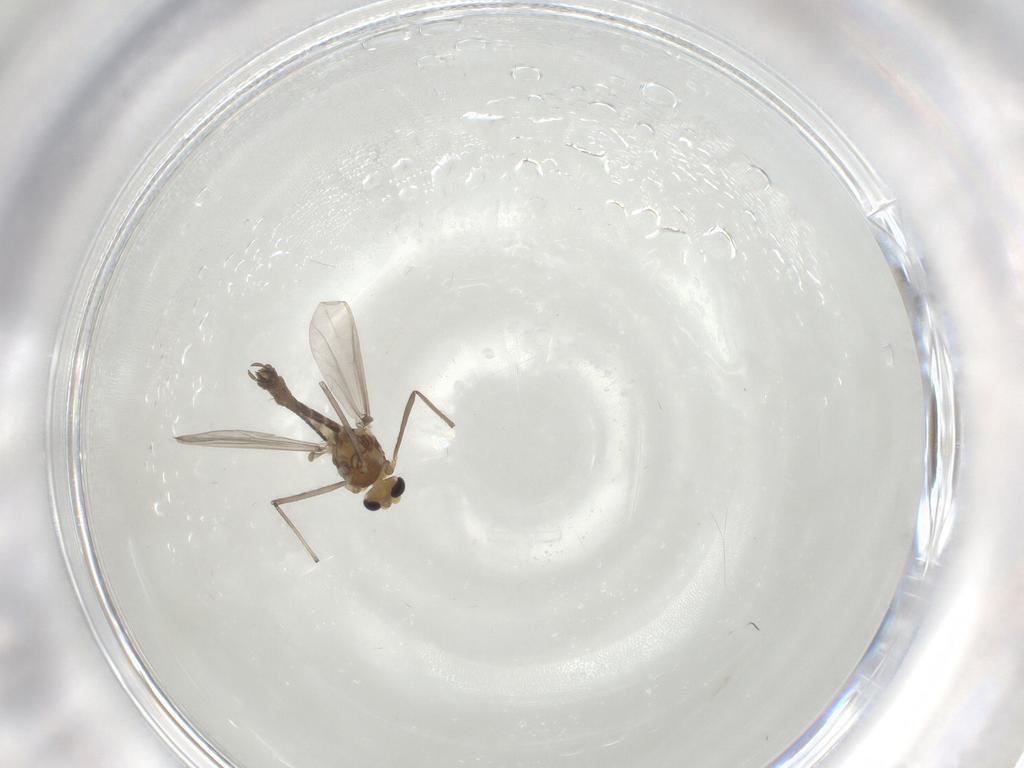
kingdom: Animalia
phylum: Arthropoda
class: Insecta
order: Diptera
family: Chironomidae
